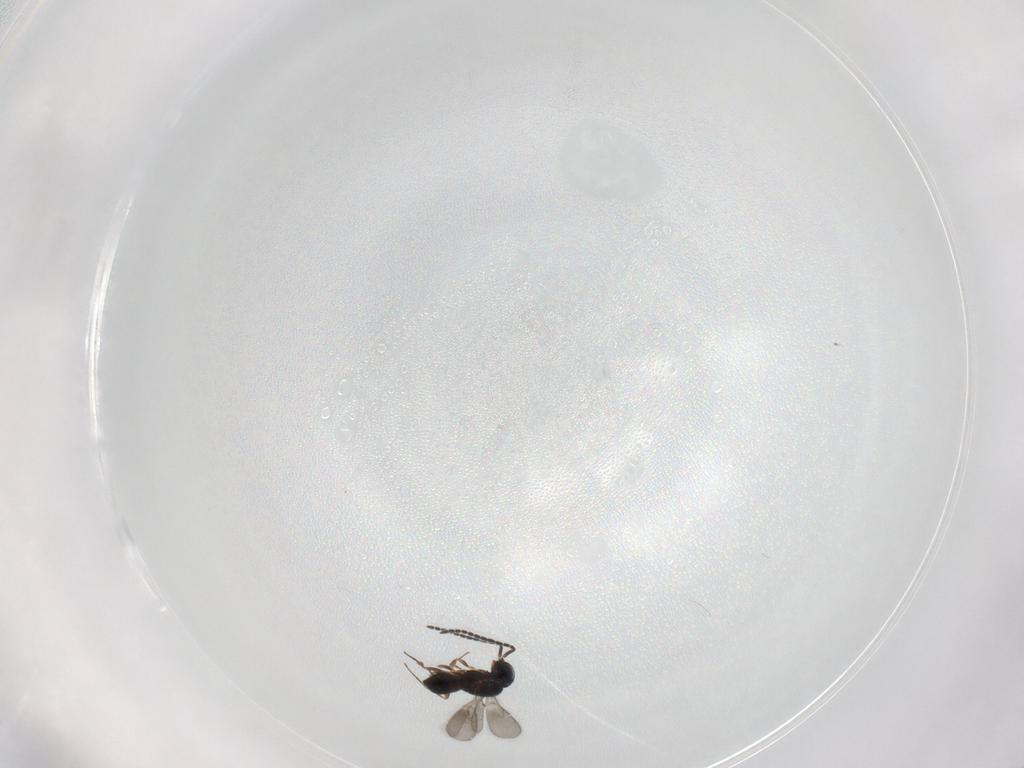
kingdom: Animalia
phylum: Arthropoda
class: Insecta
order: Hymenoptera
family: Scelionidae
